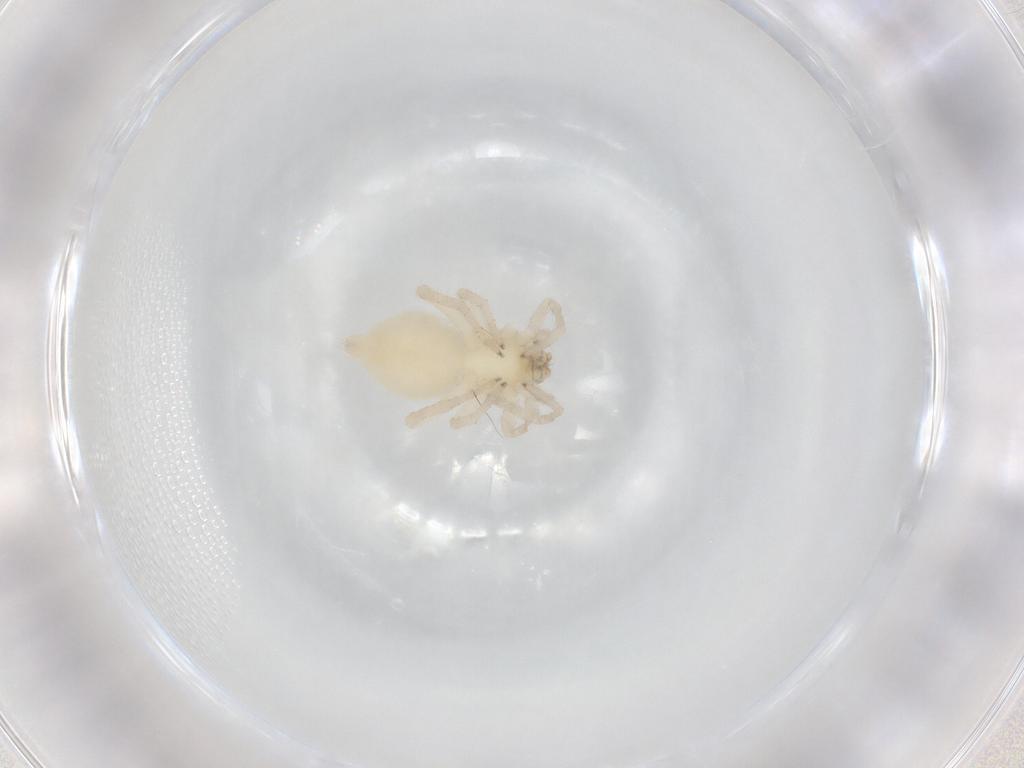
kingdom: Animalia
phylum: Arthropoda
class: Arachnida
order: Araneae
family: Clubionidae
